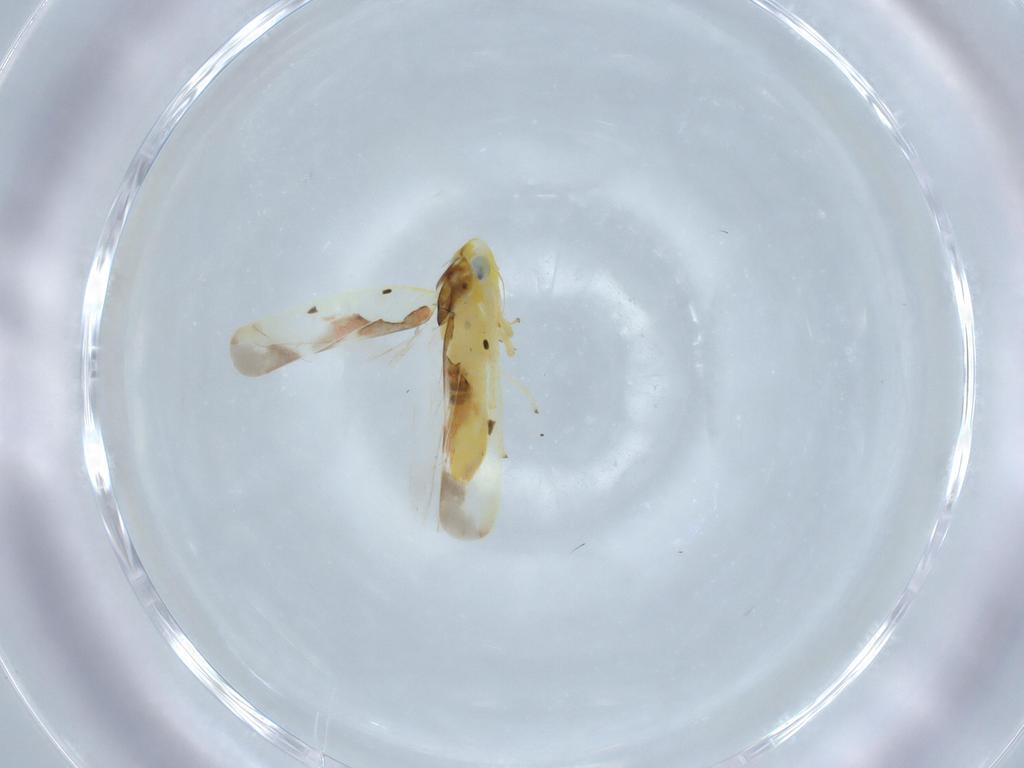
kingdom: Animalia
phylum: Arthropoda
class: Insecta
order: Hemiptera
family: Cicadellidae
